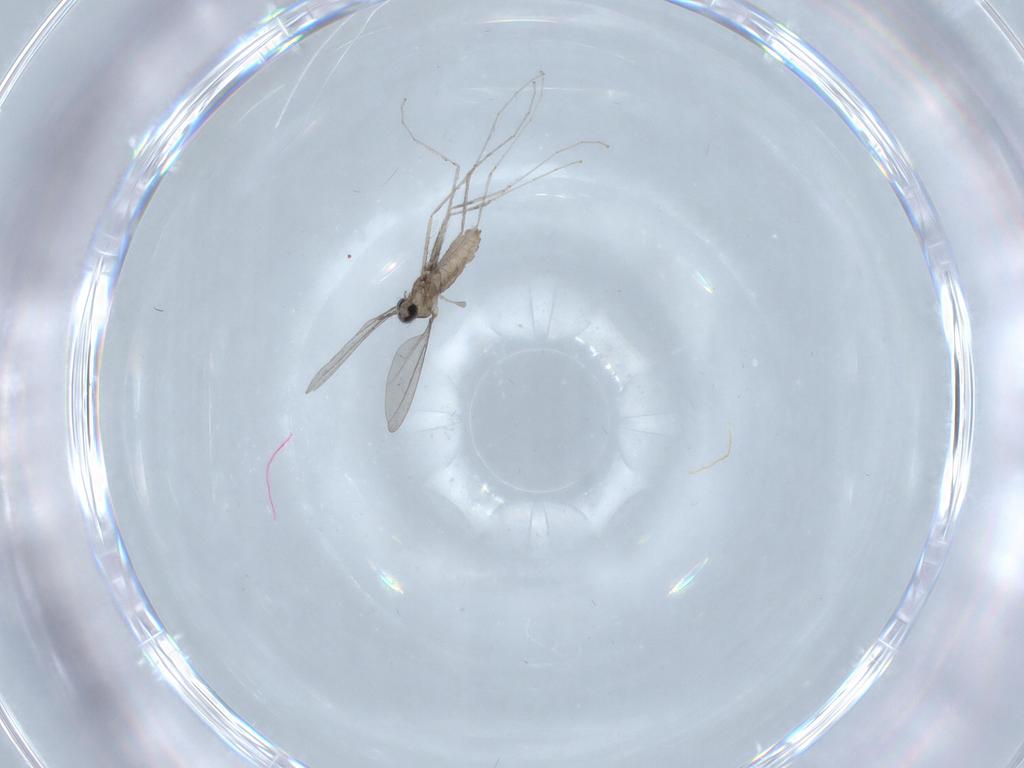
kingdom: Animalia
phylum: Arthropoda
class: Insecta
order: Diptera
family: Cecidomyiidae
